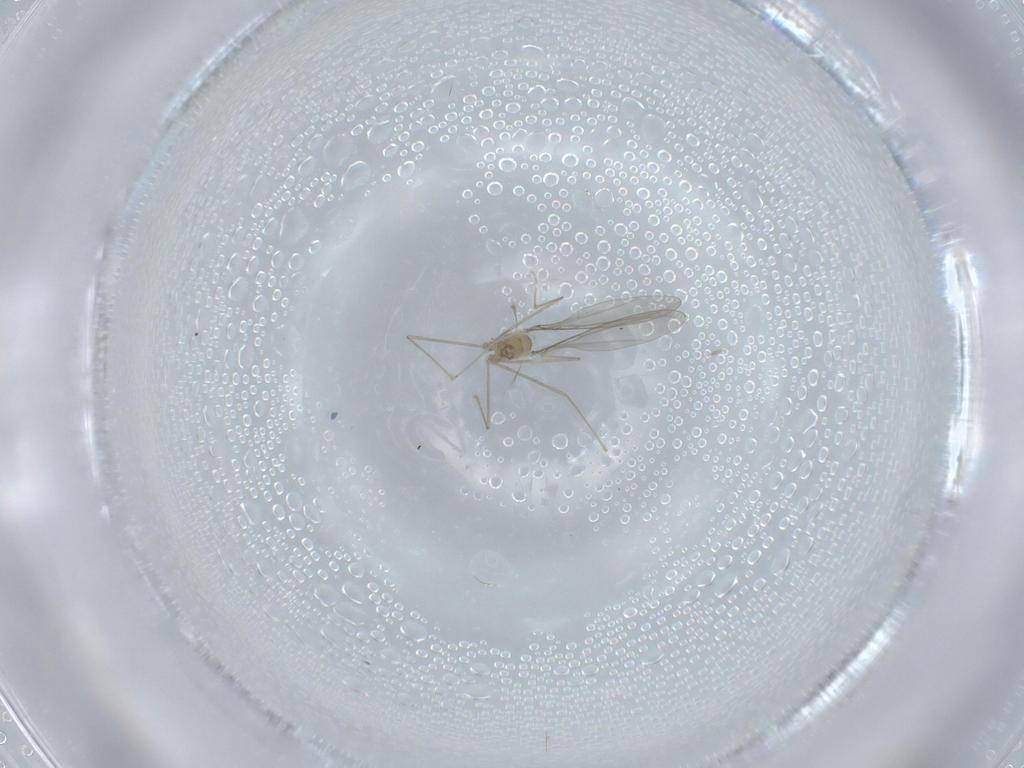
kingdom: Animalia
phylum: Arthropoda
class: Insecta
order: Diptera
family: Cecidomyiidae
